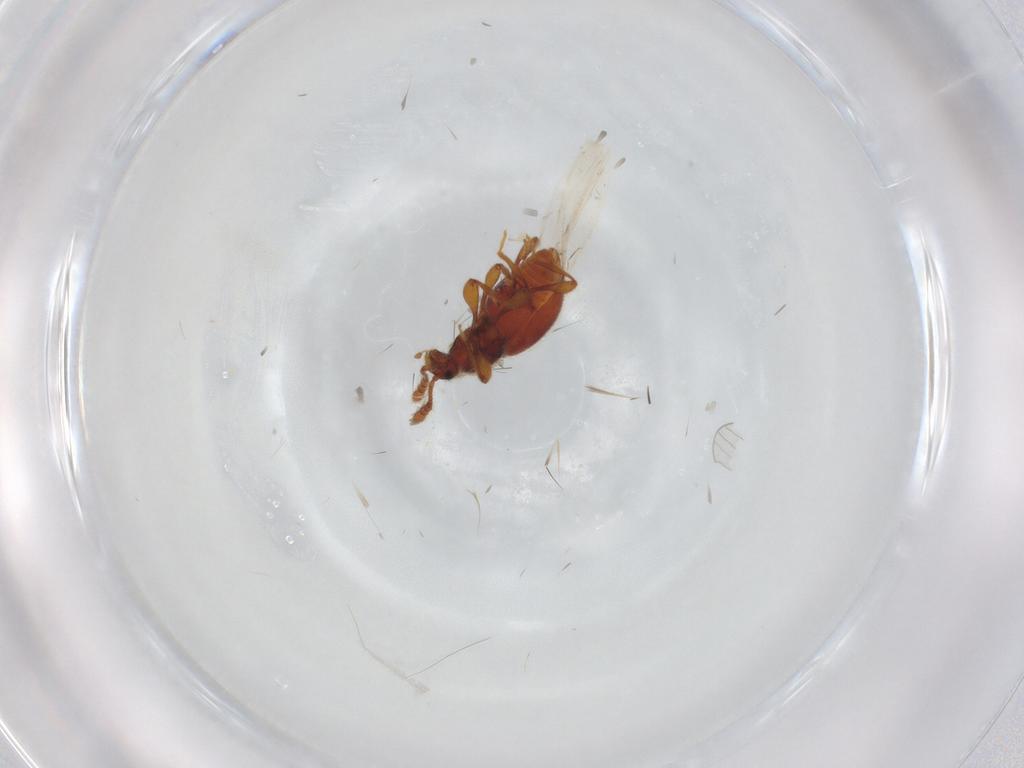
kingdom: Animalia
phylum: Arthropoda
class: Insecta
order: Coleoptera
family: Staphylinidae
